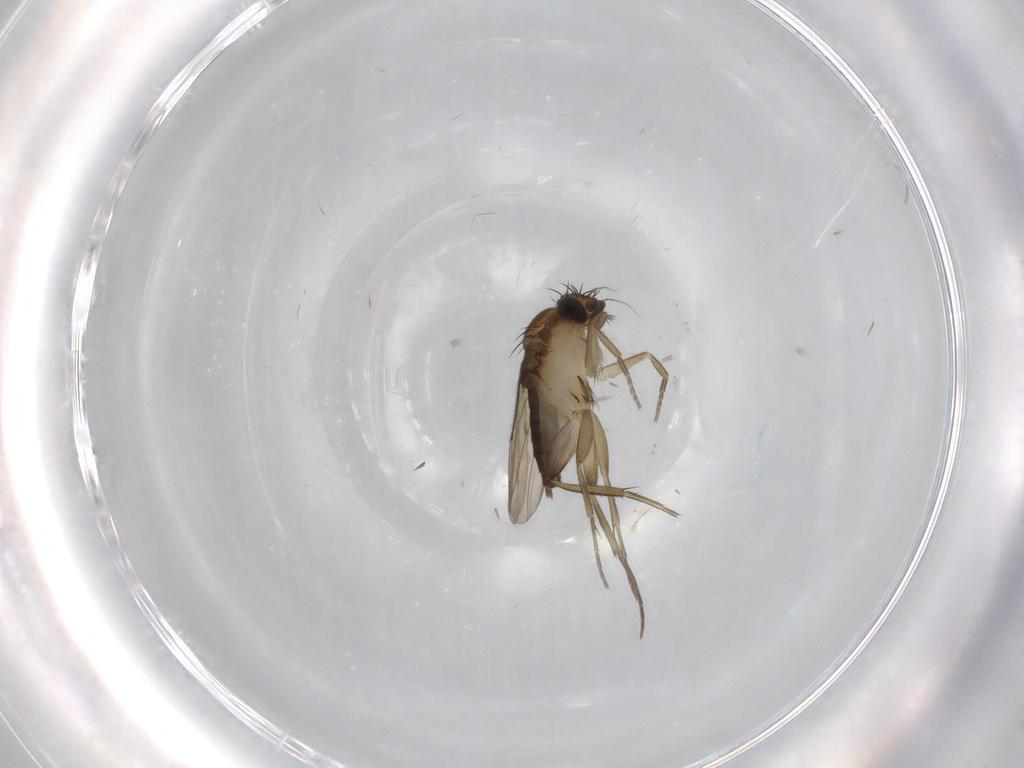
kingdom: Animalia
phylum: Arthropoda
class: Insecta
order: Diptera
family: Phoridae
